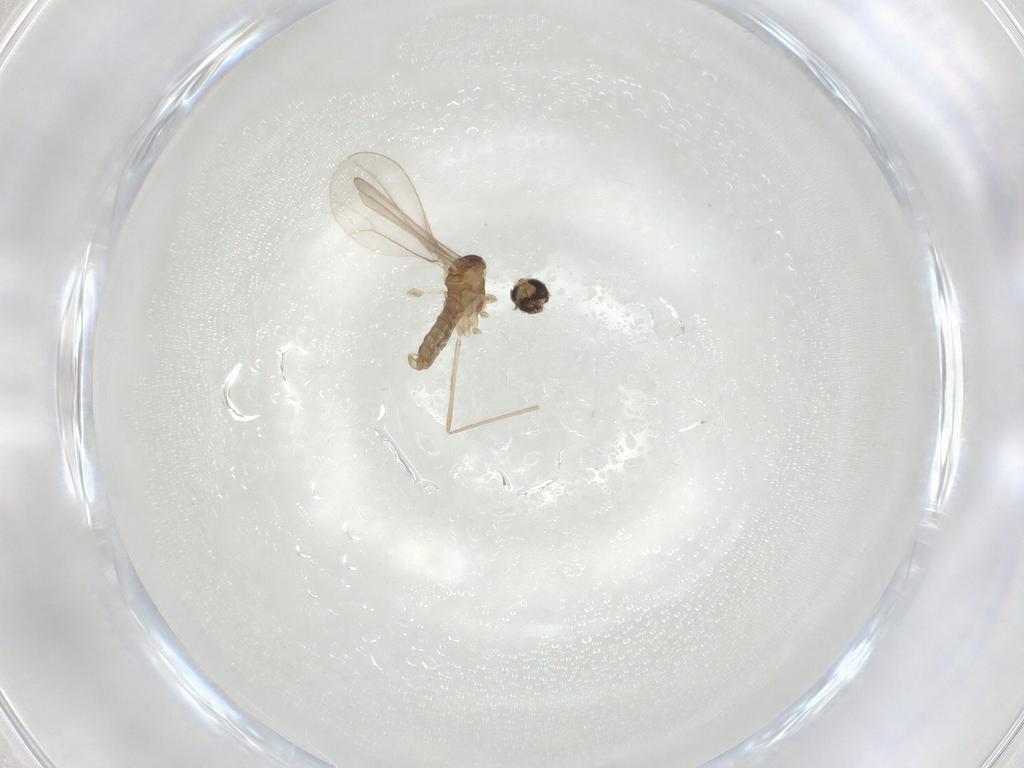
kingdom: Animalia
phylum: Arthropoda
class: Insecta
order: Diptera
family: Cecidomyiidae
